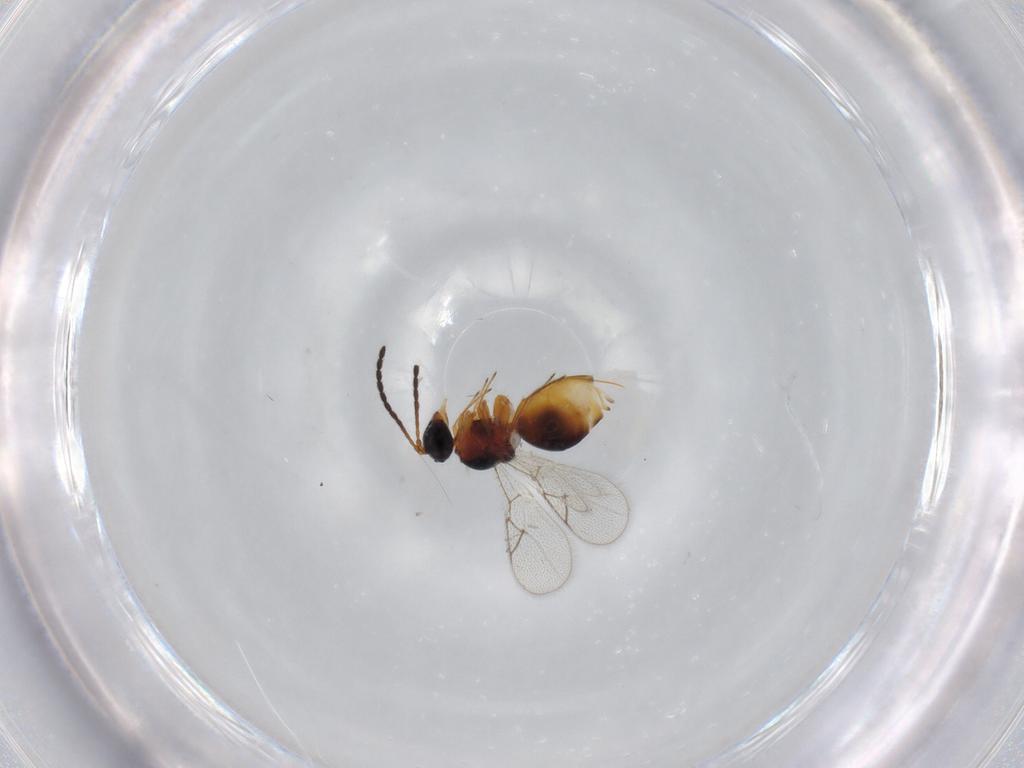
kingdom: Animalia
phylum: Arthropoda
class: Insecta
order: Hymenoptera
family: Figitidae
